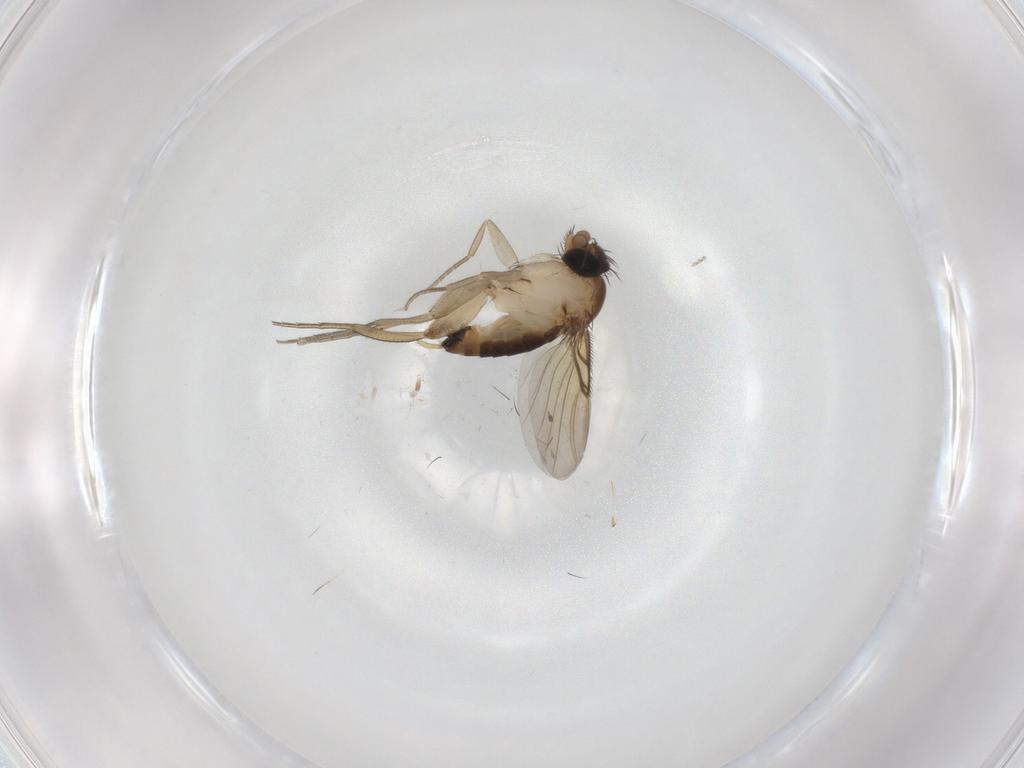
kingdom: Animalia
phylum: Arthropoda
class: Insecta
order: Diptera
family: Phoridae
